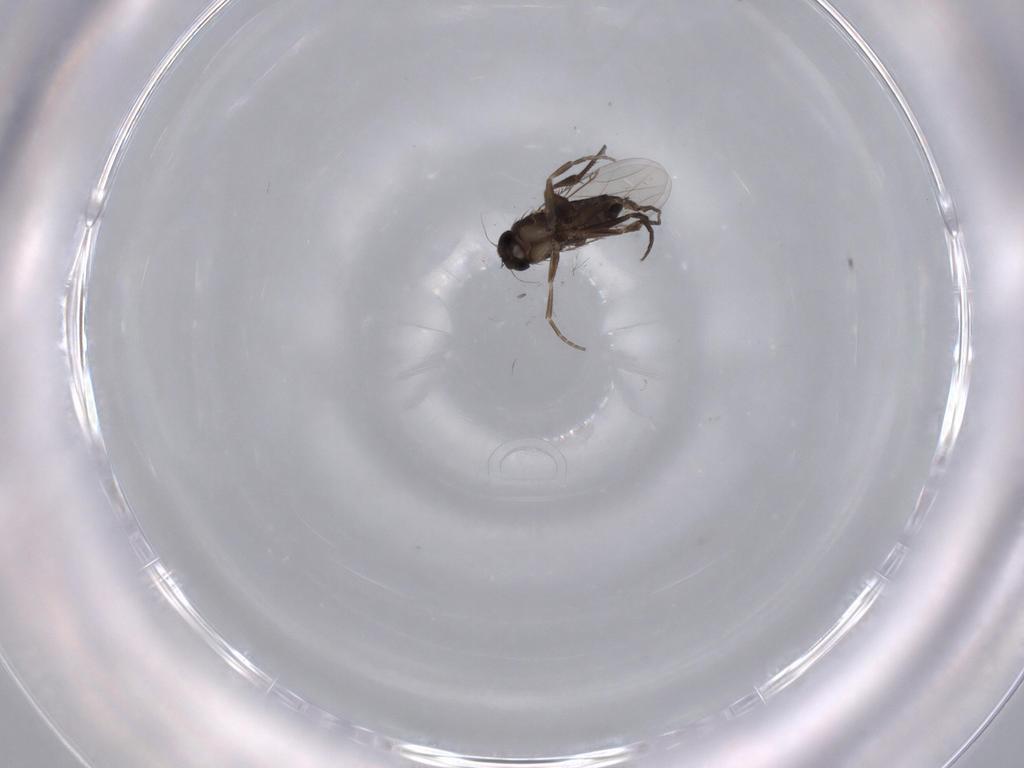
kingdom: Animalia
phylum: Arthropoda
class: Insecta
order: Diptera
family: Phoridae
